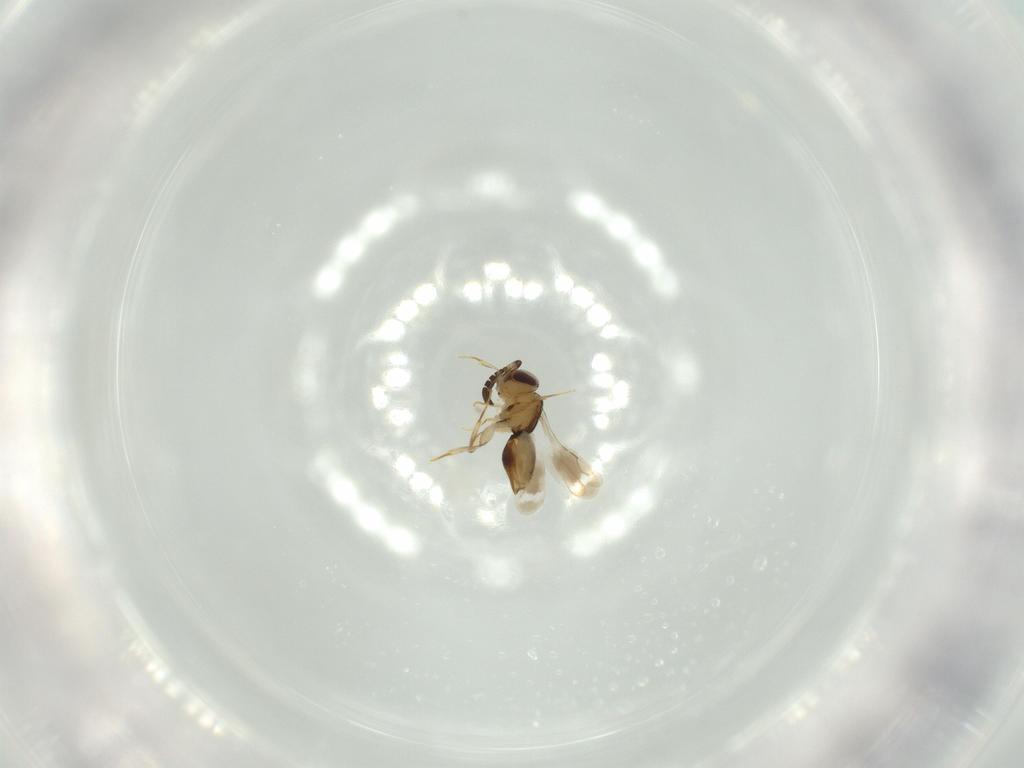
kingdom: Animalia
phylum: Arthropoda
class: Insecta
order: Hymenoptera
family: Formicidae
